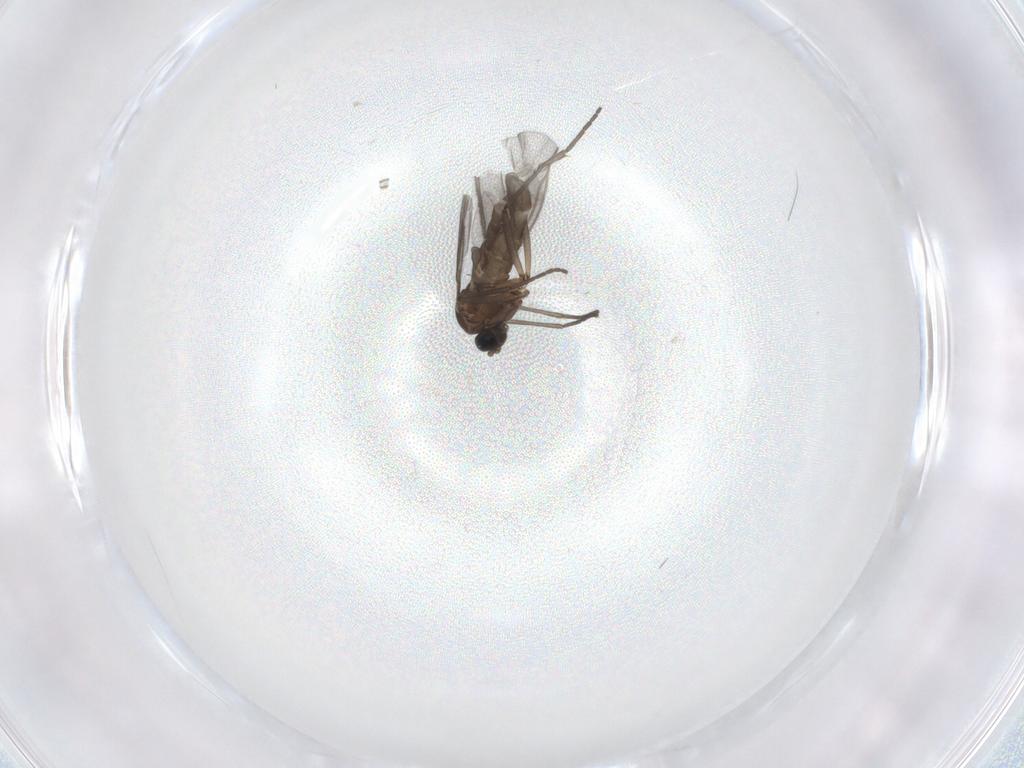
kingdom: Animalia
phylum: Arthropoda
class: Insecta
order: Diptera
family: Sciaridae
